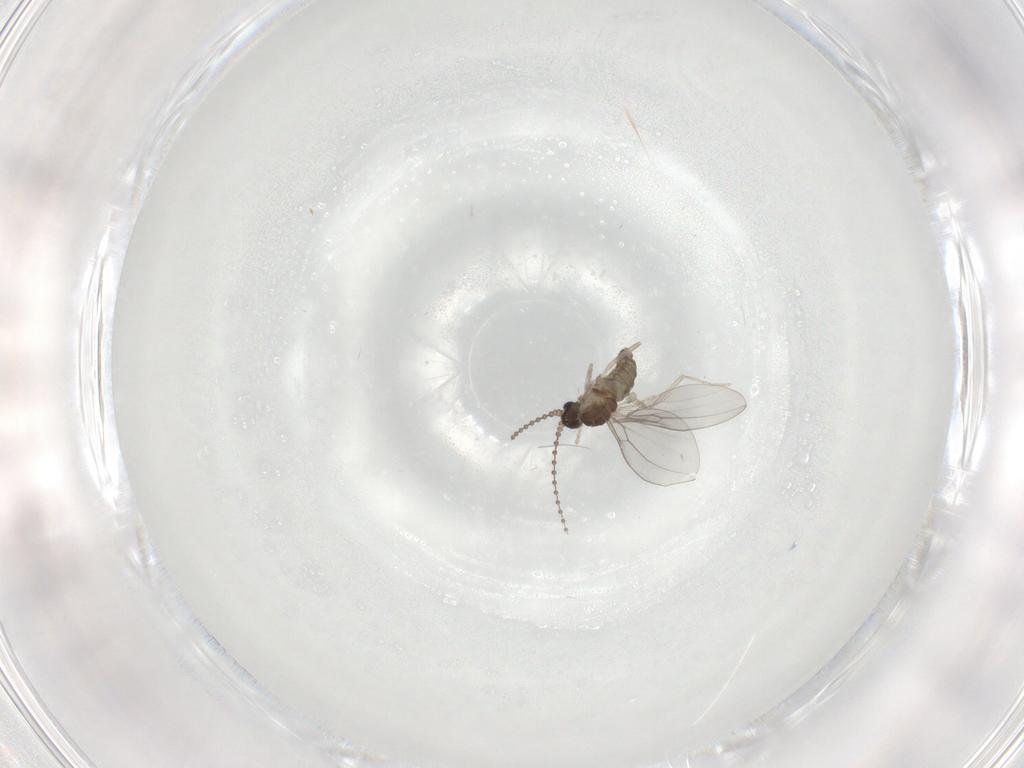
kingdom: Animalia
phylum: Arthropoda
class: Insecta
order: Diptera
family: Cecidomyiidae
